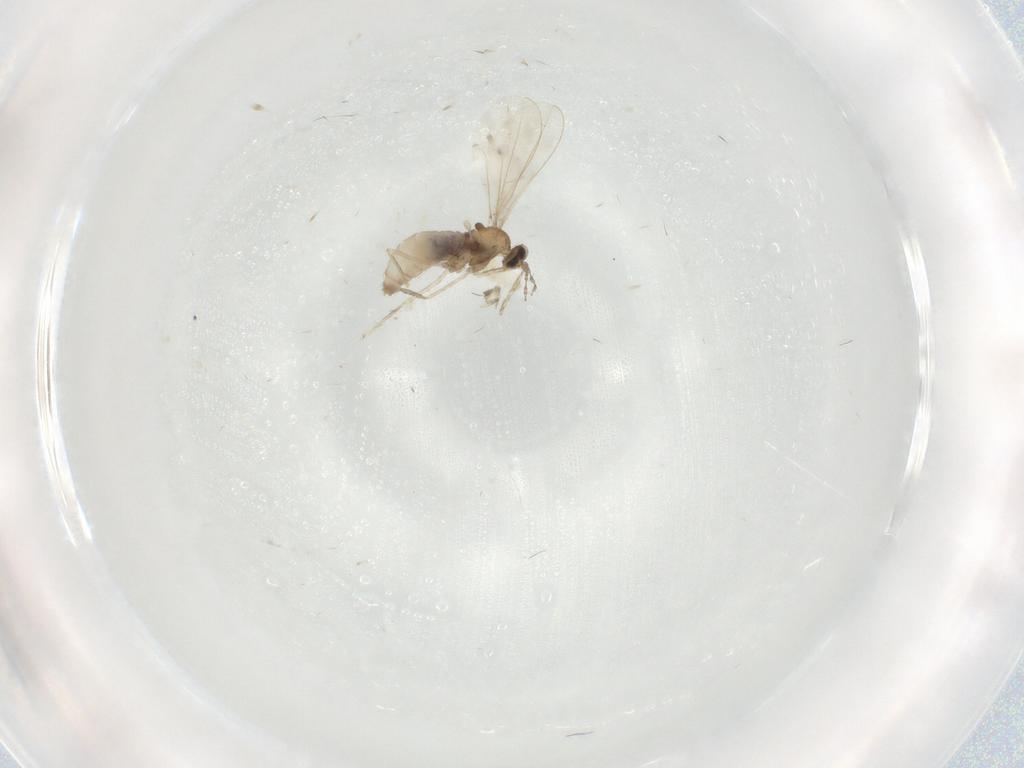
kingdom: Animalia
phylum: Arthropoda
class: Insecta
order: Diptera
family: Cecidomyiidae
